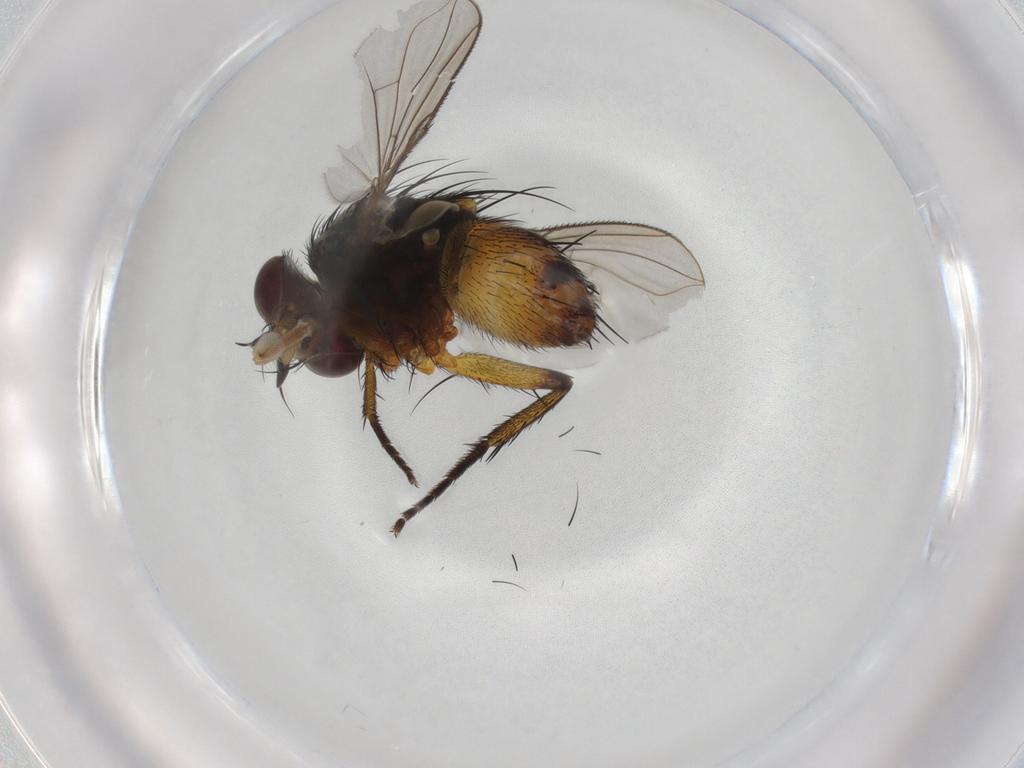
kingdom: Animalia
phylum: Arthropoda
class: Insecta
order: Diptera
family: Tachinidae
